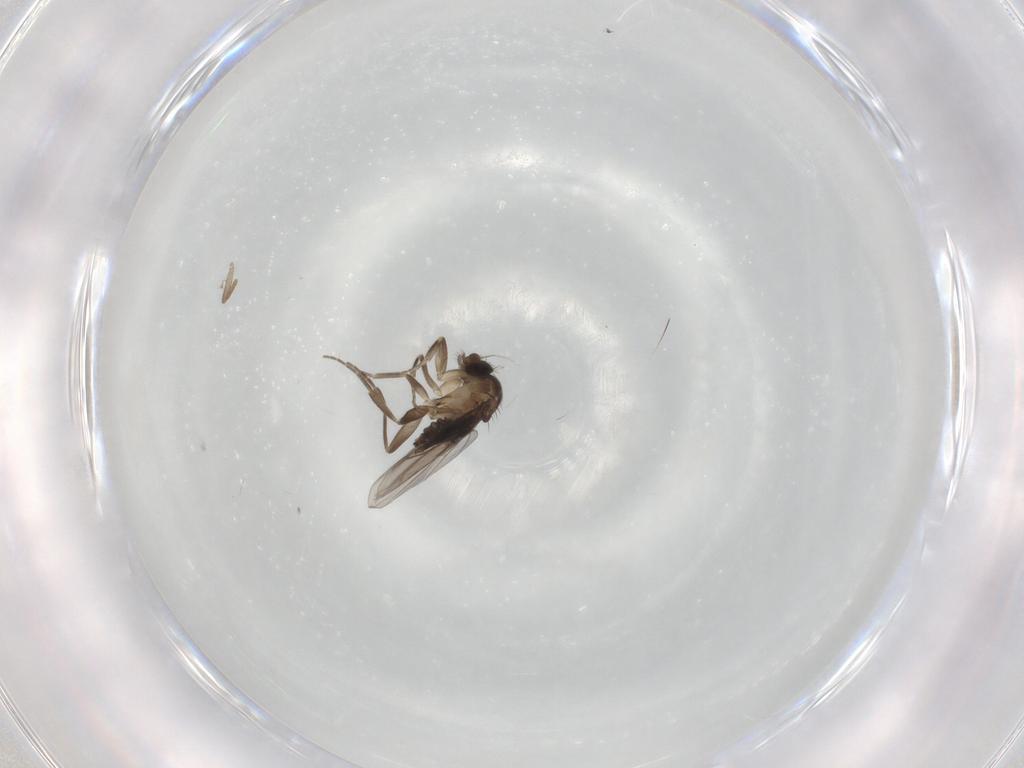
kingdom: Animalia
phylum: Arthropoda
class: Insecta
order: Diptera
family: Phoridae
